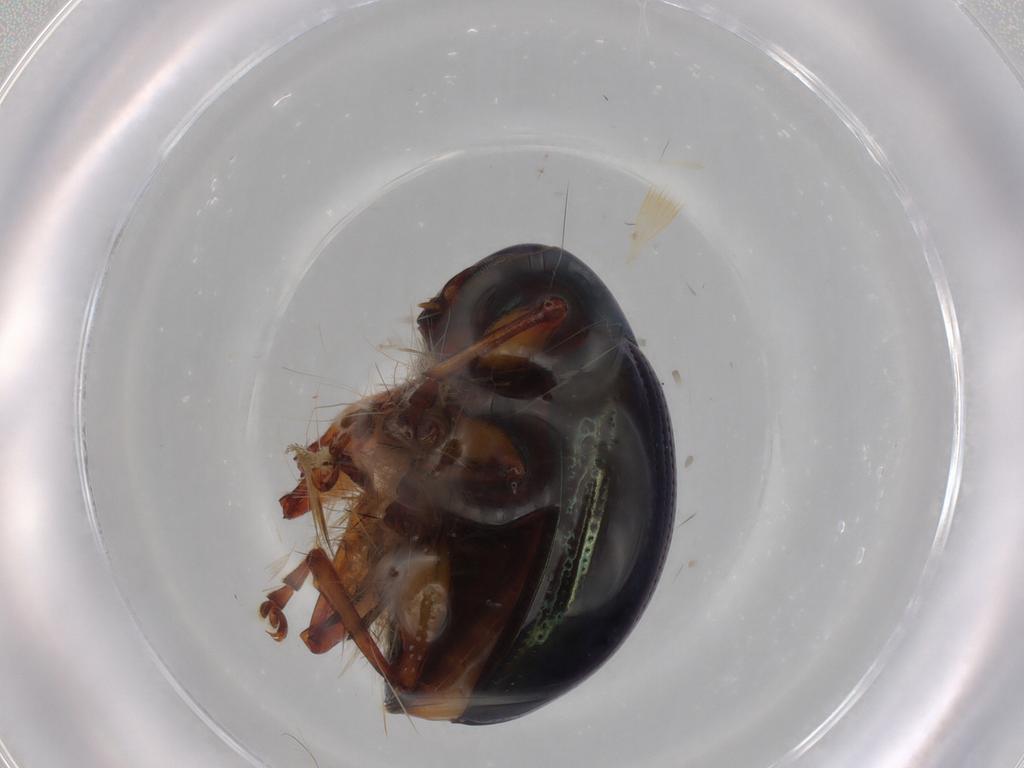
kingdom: Animalia
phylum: Arthropoda
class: Insecta
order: Coleoptera
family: Chrysomelidae
